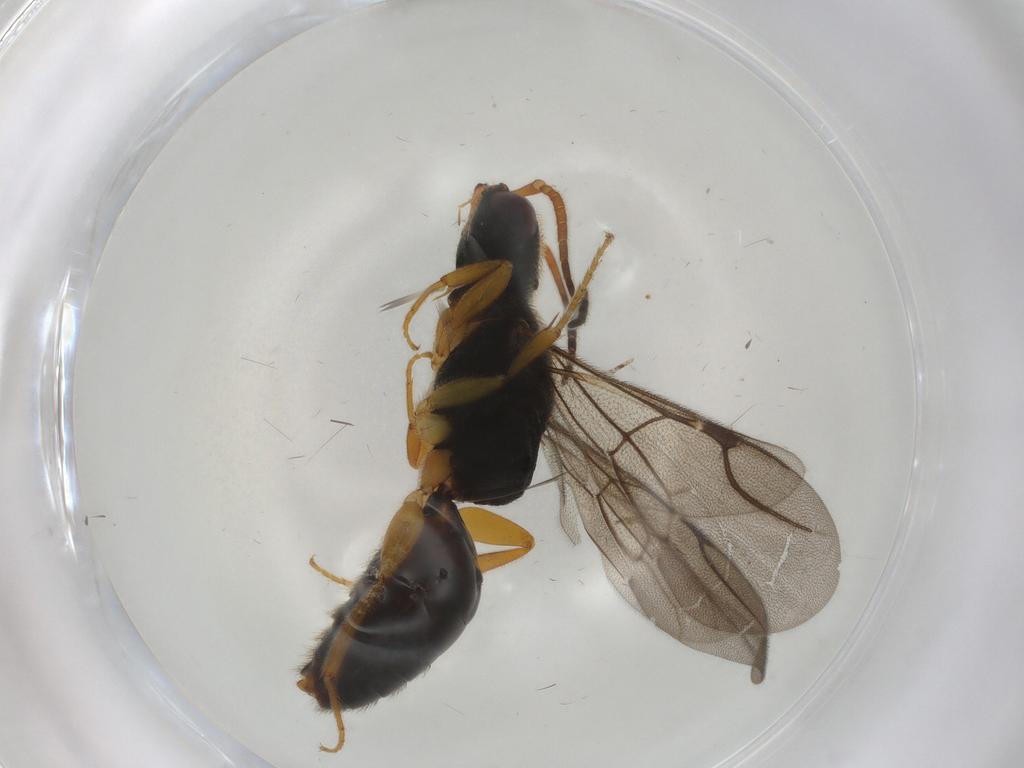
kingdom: Animalia
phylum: Arthropoda
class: Insecta
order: Hymenoptera
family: Bethylidae
